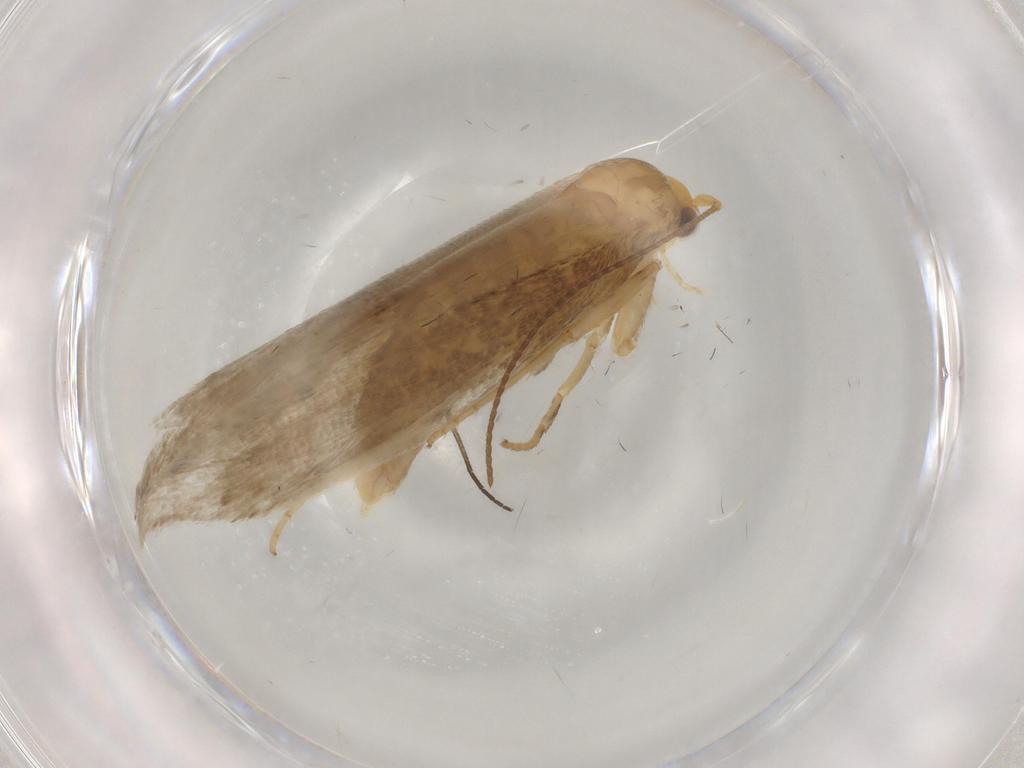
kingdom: Animalia
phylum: Arthropoda
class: Insecta
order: Lepidoptera
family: Argyresthiidae
